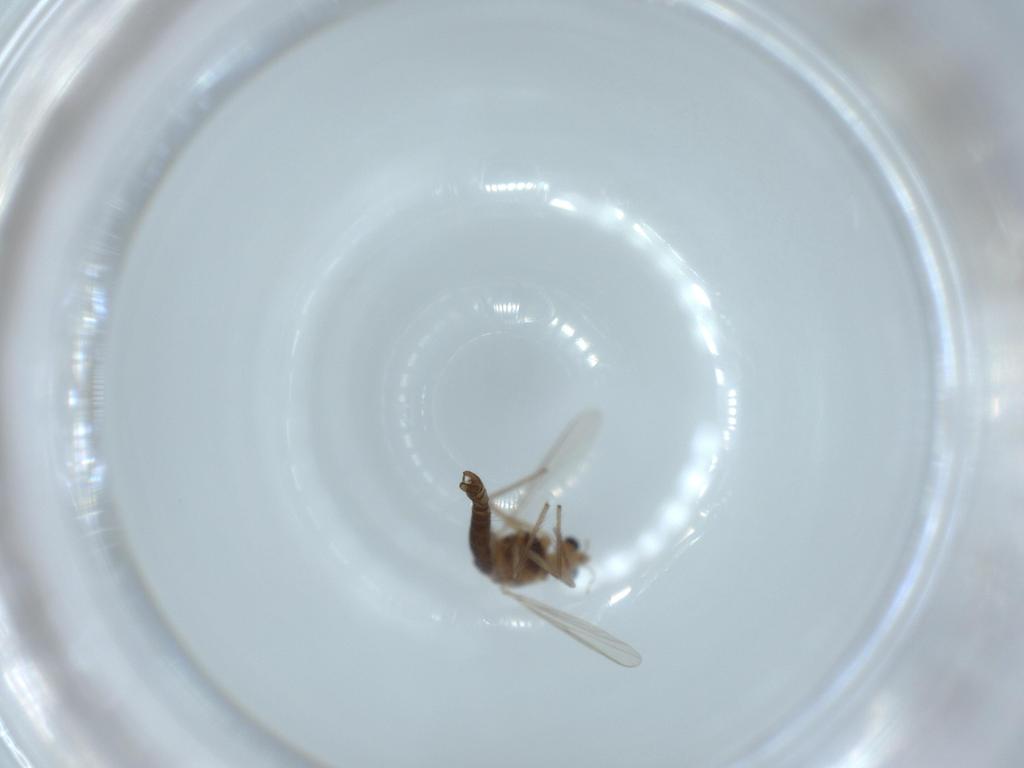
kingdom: Animalia
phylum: Arthropoda
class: Insecta
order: Diptera
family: Chironomidae
